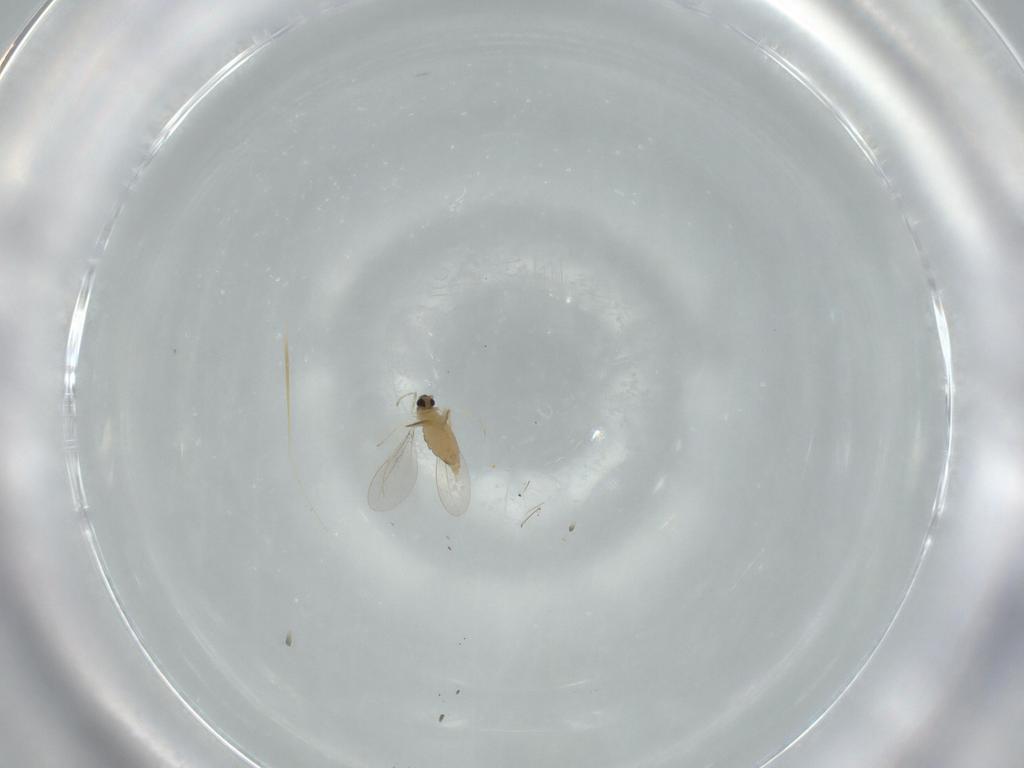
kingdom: Animalia
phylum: Arthropoda
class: Insecta
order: Diptera
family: Cecidomyiidae
